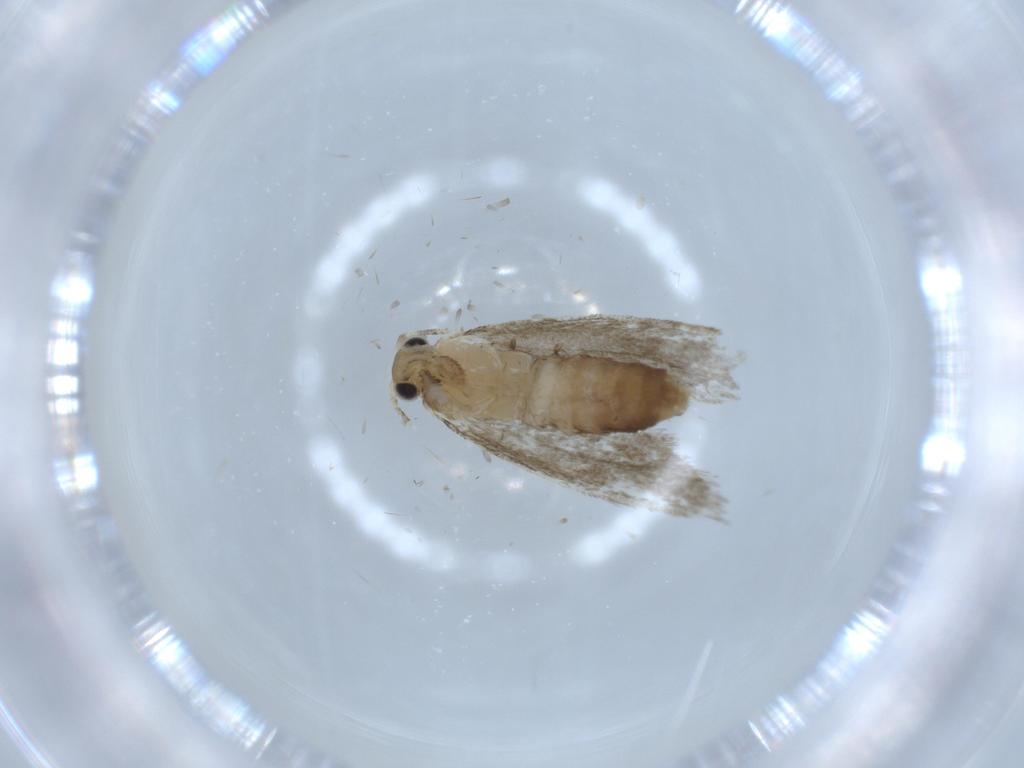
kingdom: Animalia
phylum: Arthropoda
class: Insecta
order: Lepidoptera
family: Tineidae
